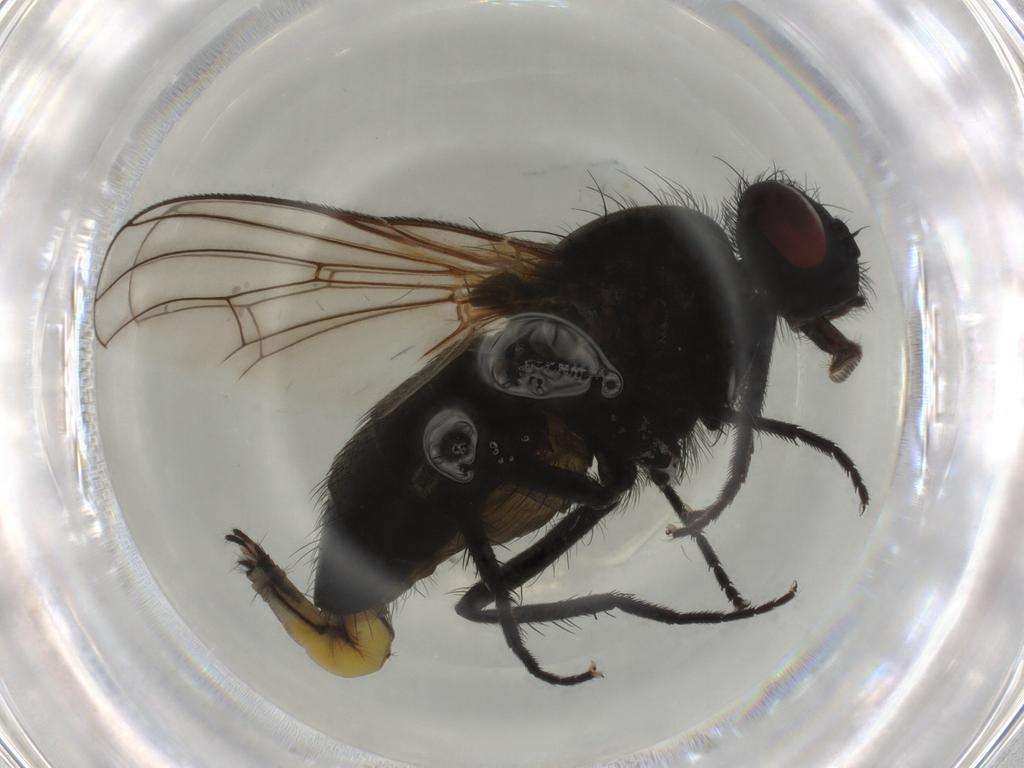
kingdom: Animalia
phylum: Arthropoda
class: Insecta
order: Diptera
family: Muscidae
